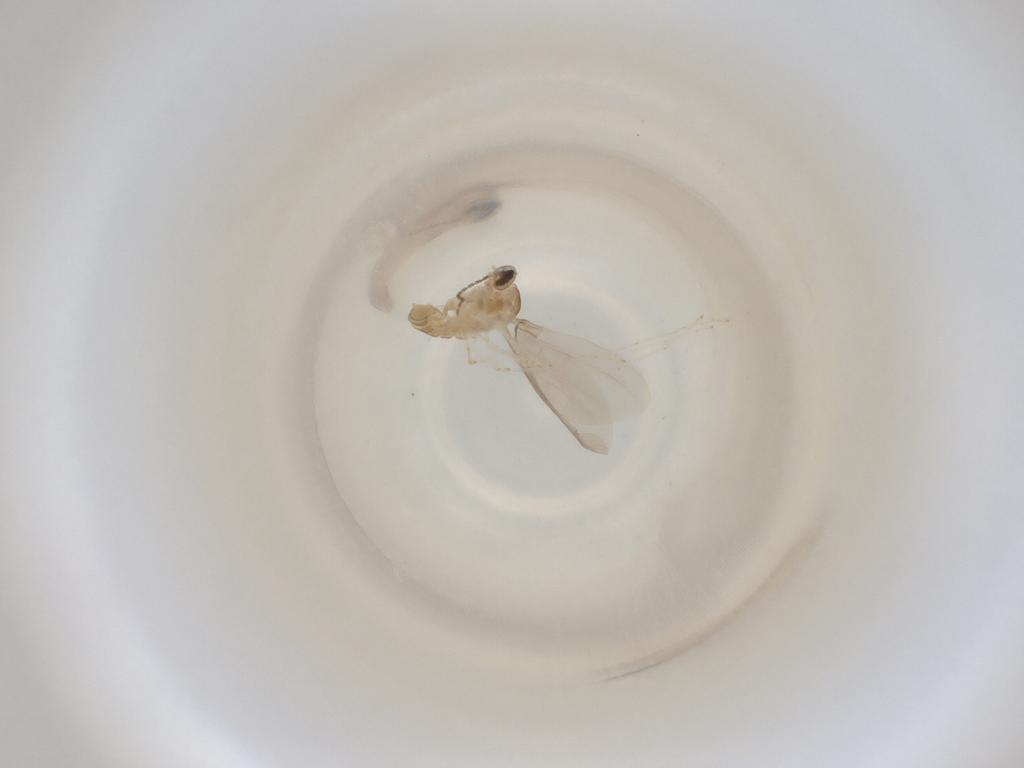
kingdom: Animalia
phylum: Arthropoda
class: Insecta
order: Diptera
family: Cecidomyiidae
